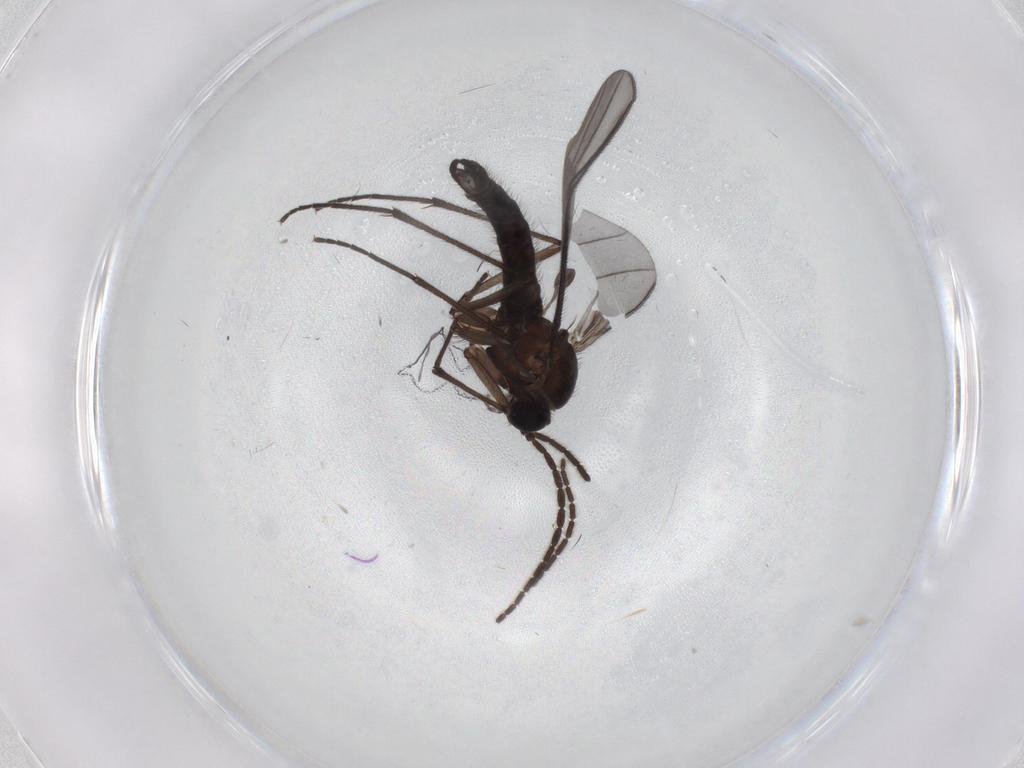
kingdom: Animalia
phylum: Arthropoda
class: Insecta
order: Diptera
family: Sciaridae
